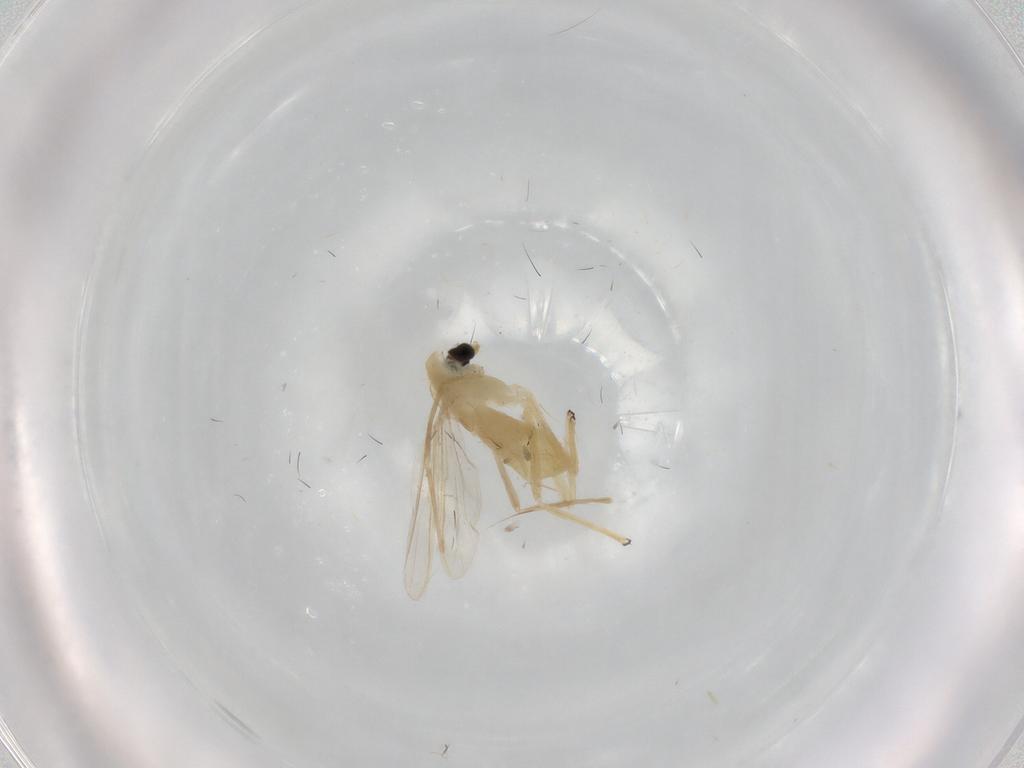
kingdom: Animalia
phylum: Arthropoda
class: Insecta
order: Diptera
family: Chironomidae
